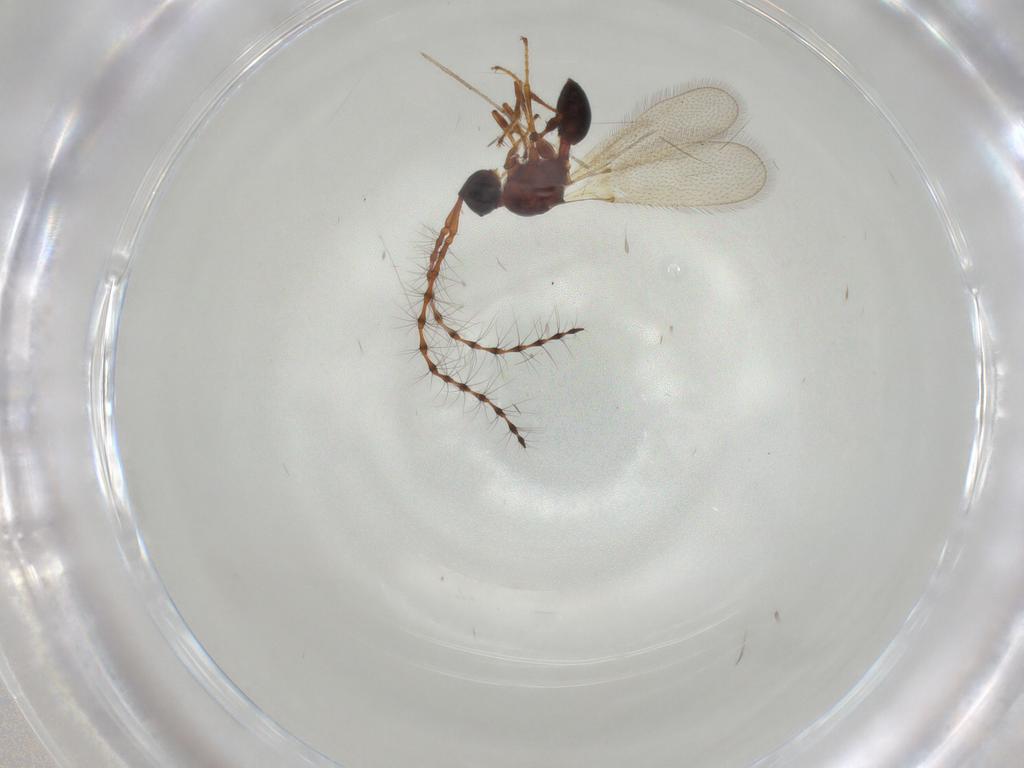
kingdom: Animalia
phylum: Arthropoda
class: Insecta
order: Hymenoptera
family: Diapriidae
